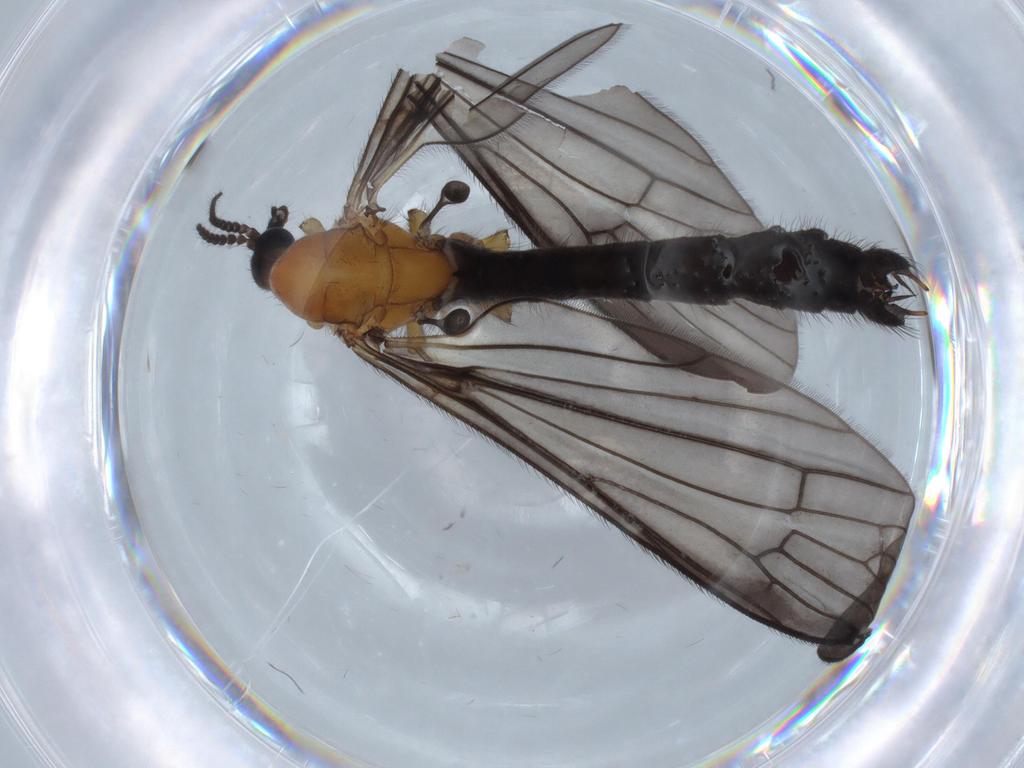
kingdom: Animalia
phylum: Arthropoda
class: Insecta
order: Diptera
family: Limoniidae
